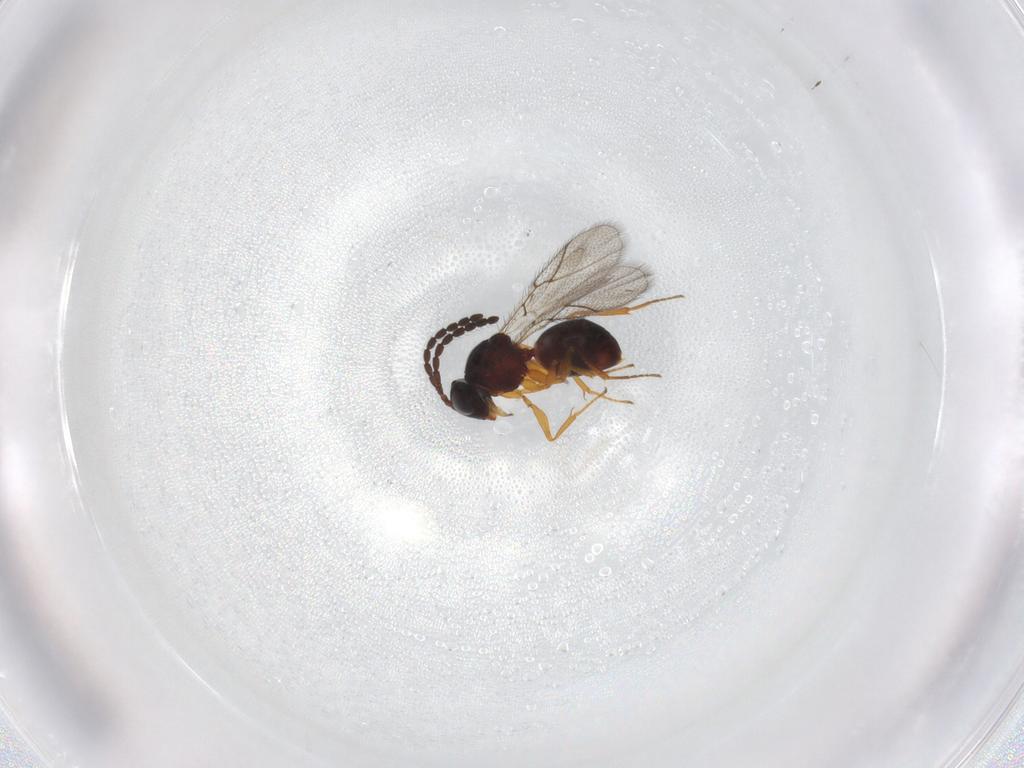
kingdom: Animalia
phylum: Arthropoda
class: Insecta
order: Hymenoptera
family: Figitidae
